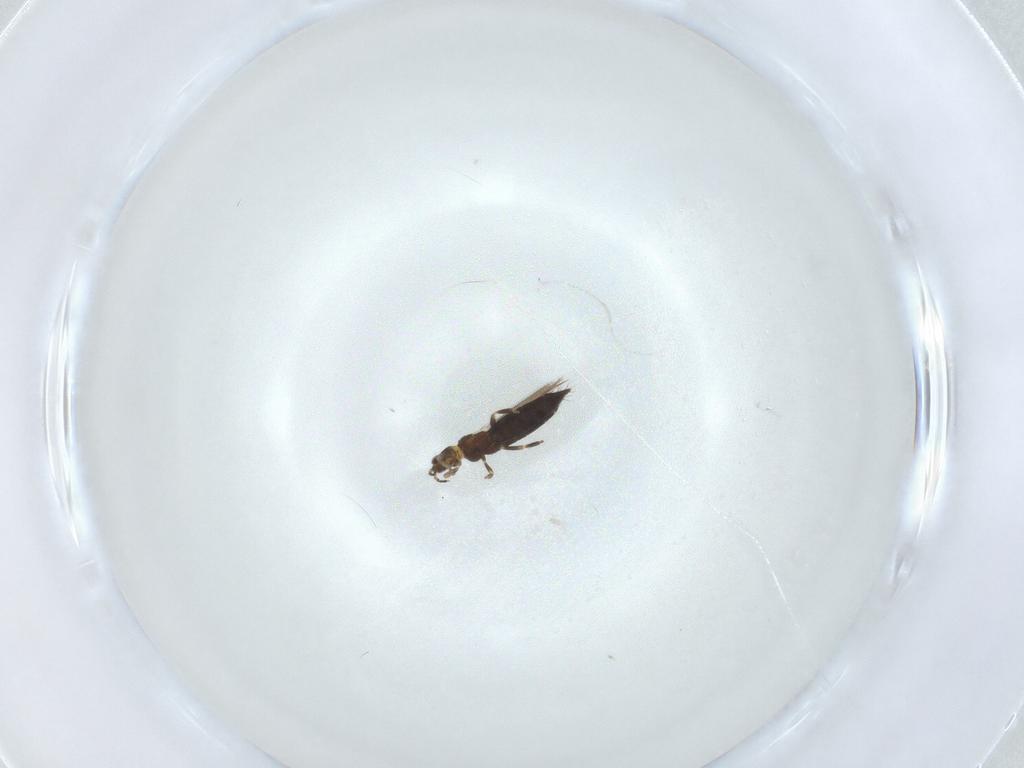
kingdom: Animalia
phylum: Arthropoda
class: Insecta
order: Thysanoptera
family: Thripidae
